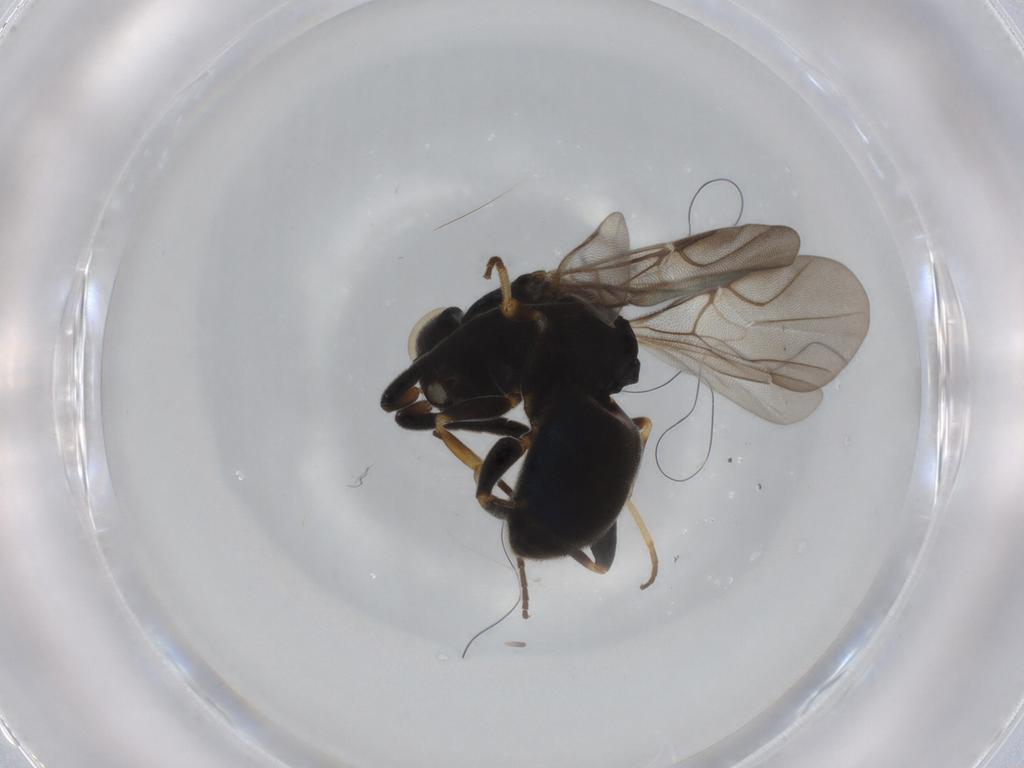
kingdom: Animalia
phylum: Arthropoda
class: Insecta
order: Hymenoptera
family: Chrysididae
